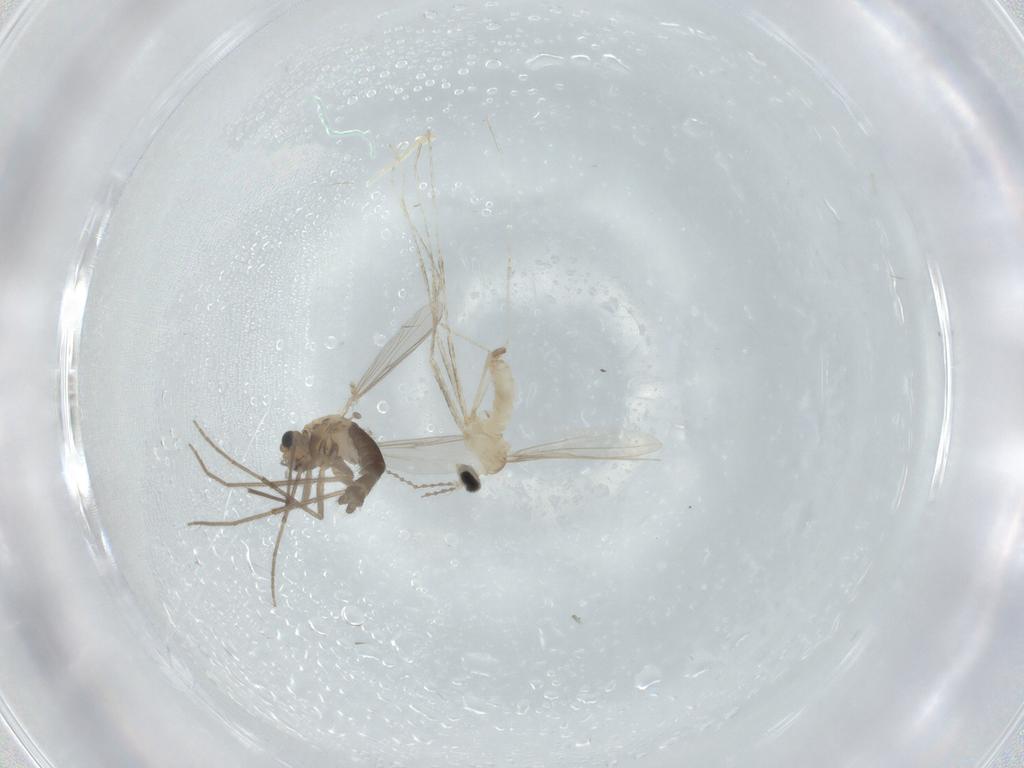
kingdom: Animalia
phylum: Arthropoda
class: Insecta
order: Diptera
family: Chironomidae
